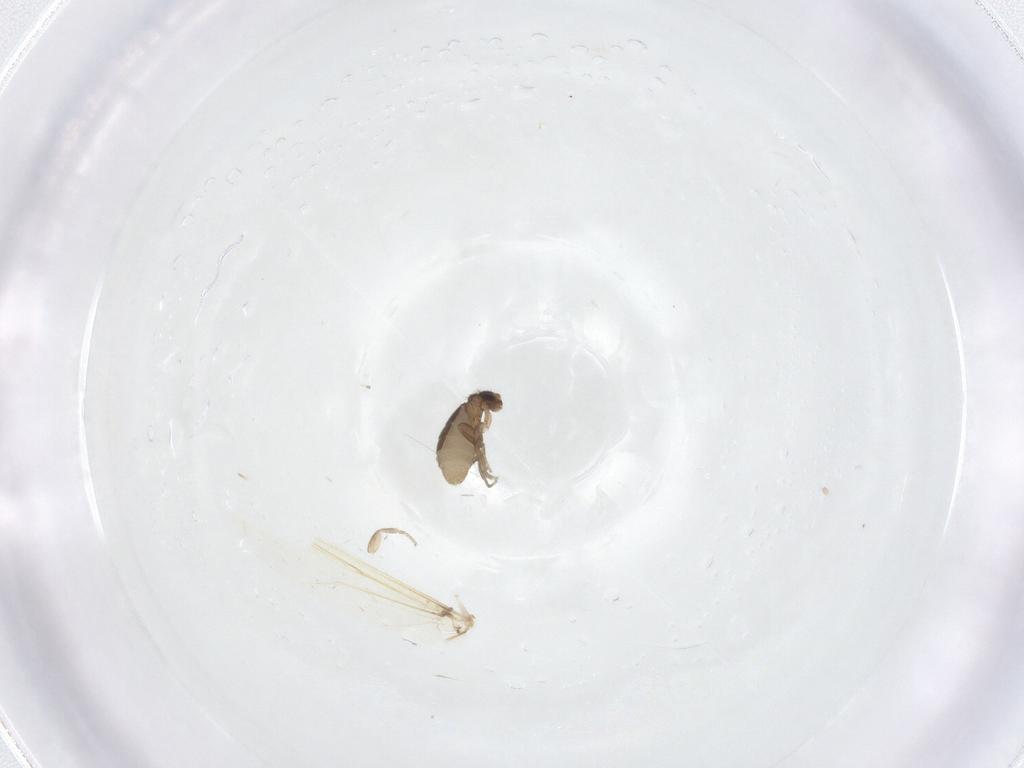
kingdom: Animalia
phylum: Arthropoda
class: Insecta
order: Diptera
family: Phoridae
